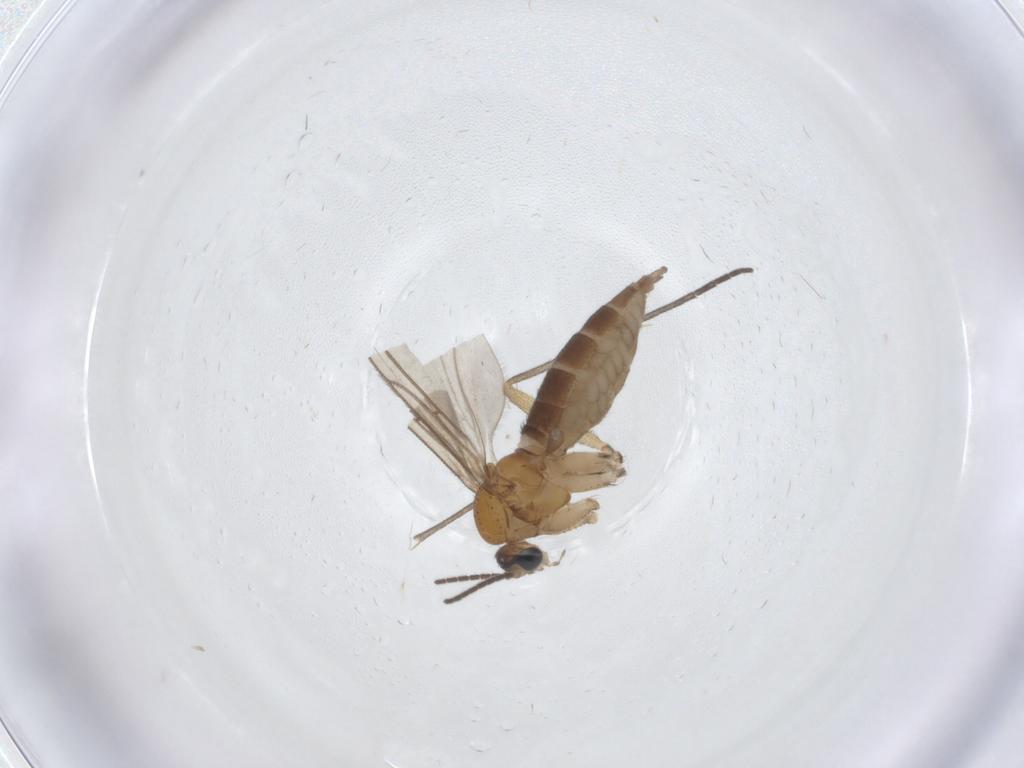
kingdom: Animalia
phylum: Arthropoda
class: Insecta
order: Diptera
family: Sciaridae
